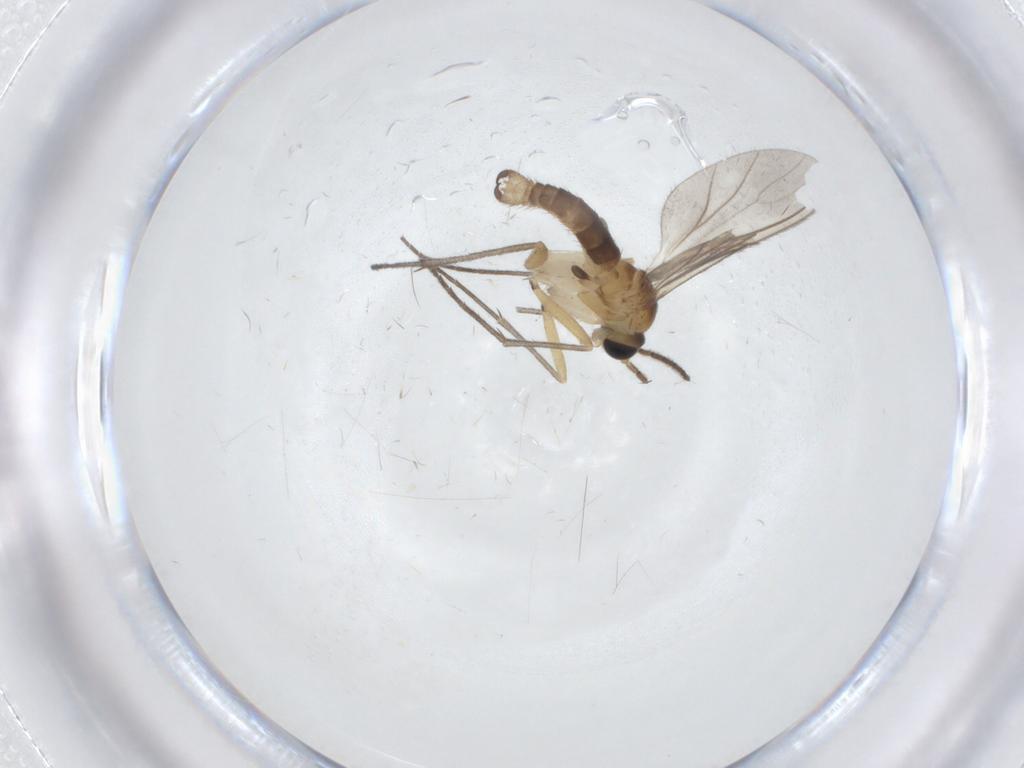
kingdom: Animalia
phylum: Arthropoda
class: Insecta
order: Diptera
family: Sciaridae
